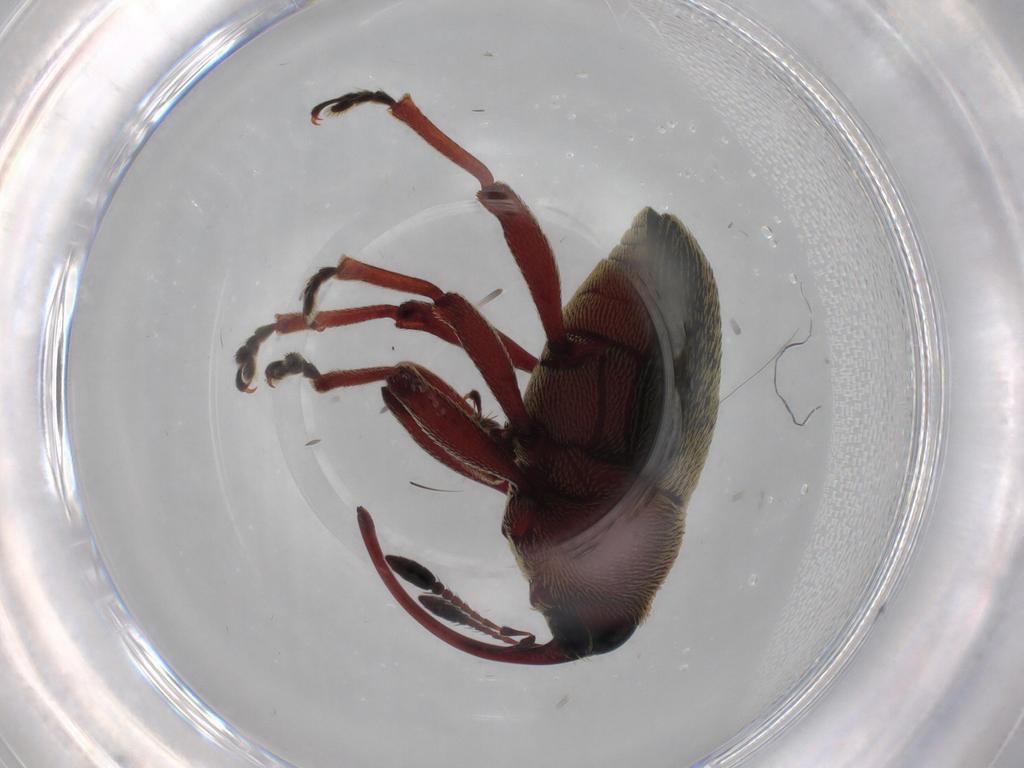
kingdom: Animalia
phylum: Arthropoda
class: Insecta
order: Coleoptera
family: Curculionidae
